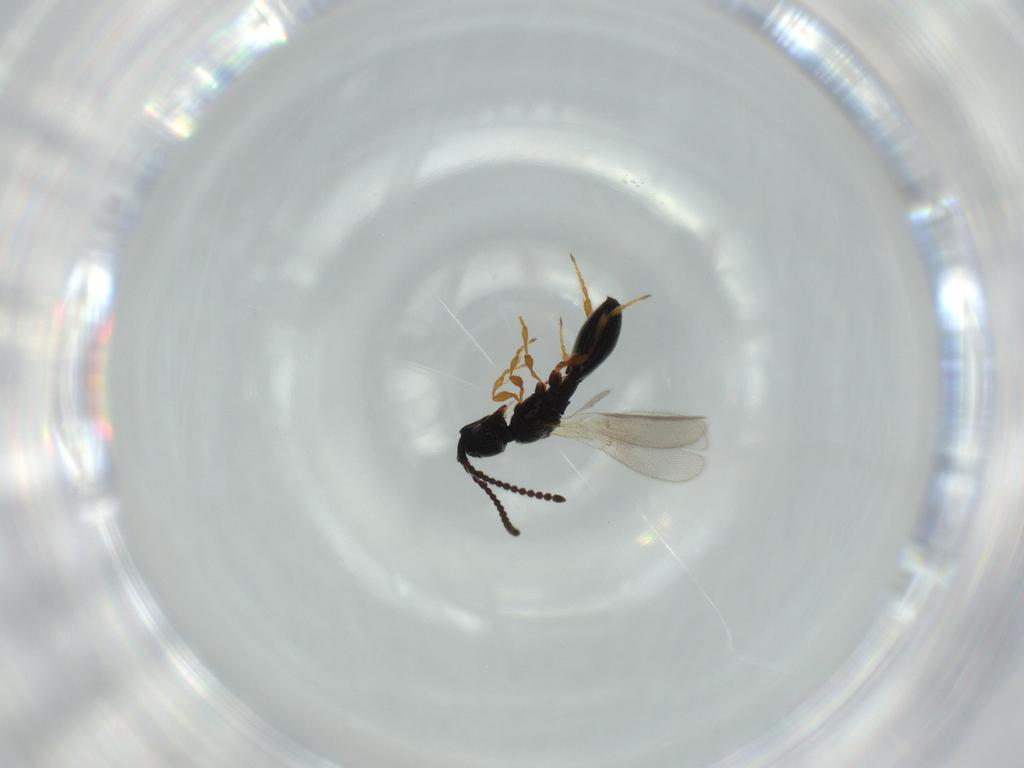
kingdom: Animalia
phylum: Arthropoda
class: Insecta
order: Hymenoptera
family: Diapriidae
